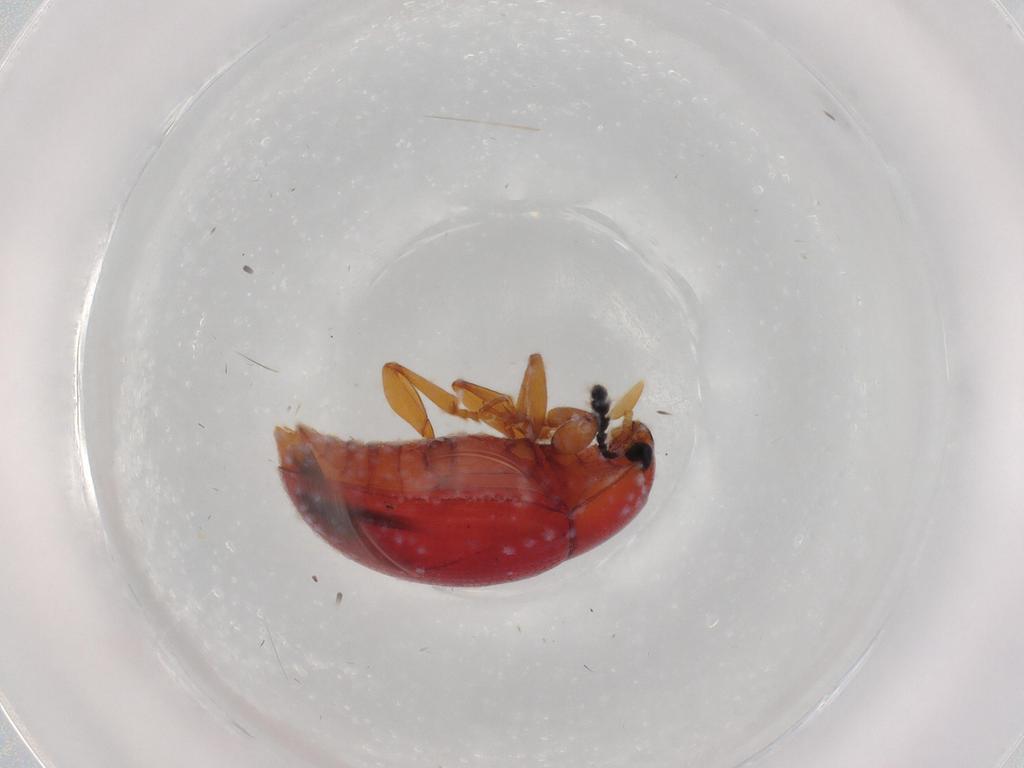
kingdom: Animalia
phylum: Arthropoda
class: Insecta
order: Coleoptera
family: Erotylidae
